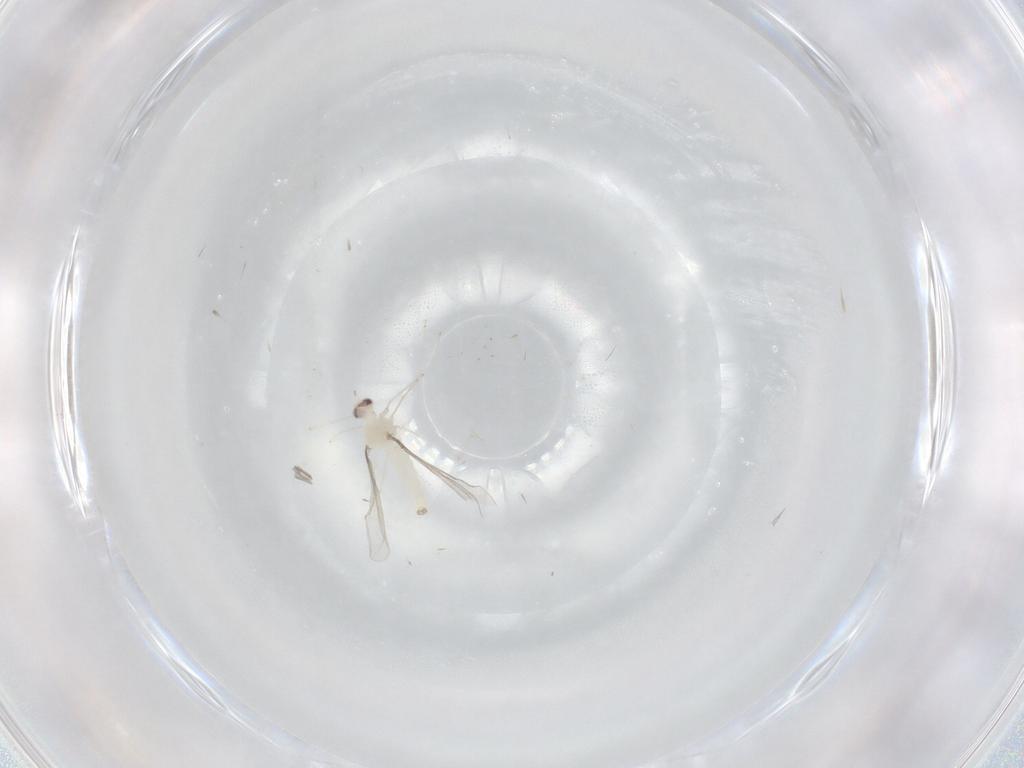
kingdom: Animalia
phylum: Arthropoda
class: Insecta
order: Diptera
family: Cecidomyiidae
